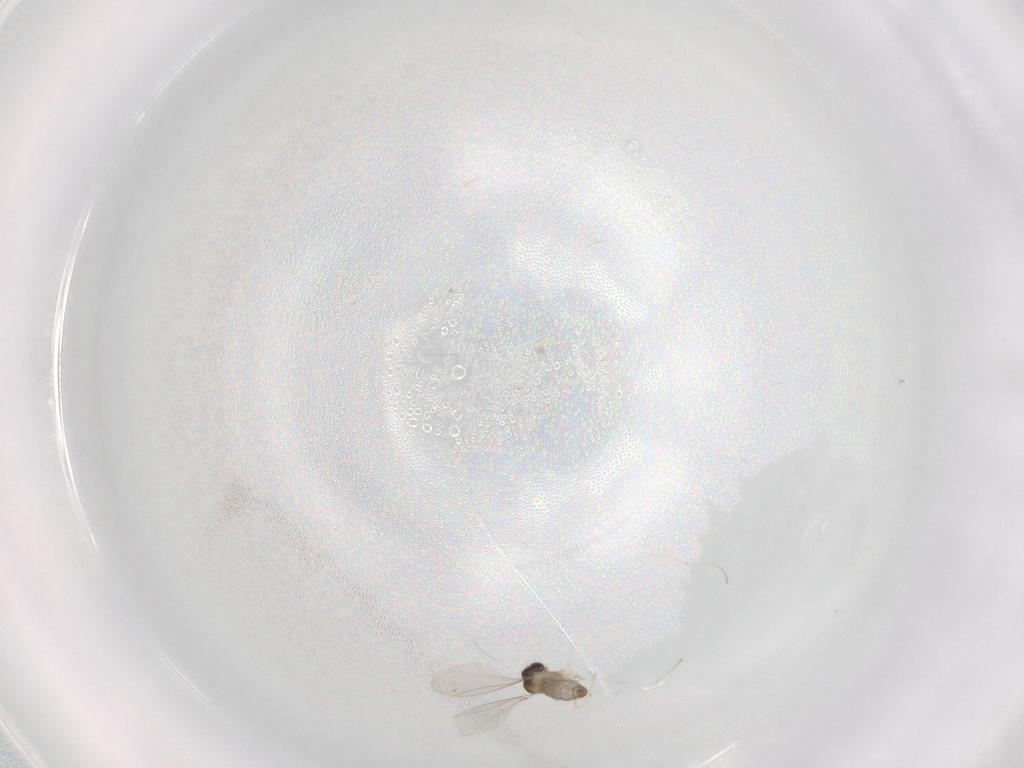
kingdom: Animalia
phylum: Arthropoda
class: Insecta
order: Diptera
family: Cecidomyiidae
